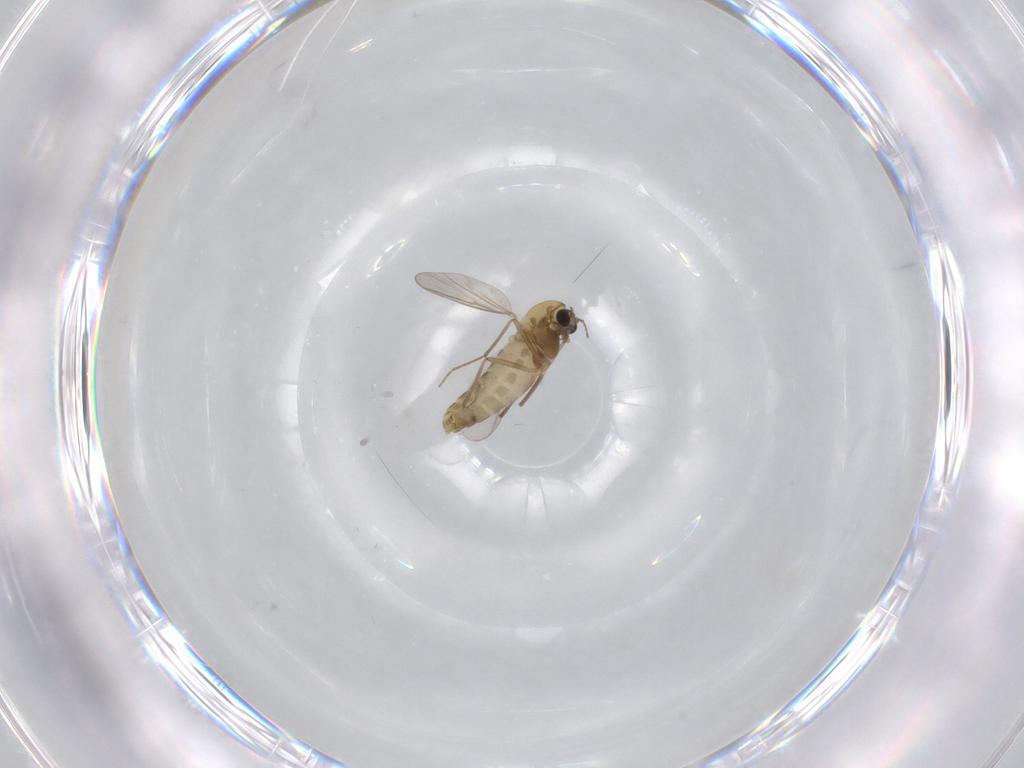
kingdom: Animalia
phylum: Arthropoda
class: Insecta
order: Diptera
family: Chironomidae
